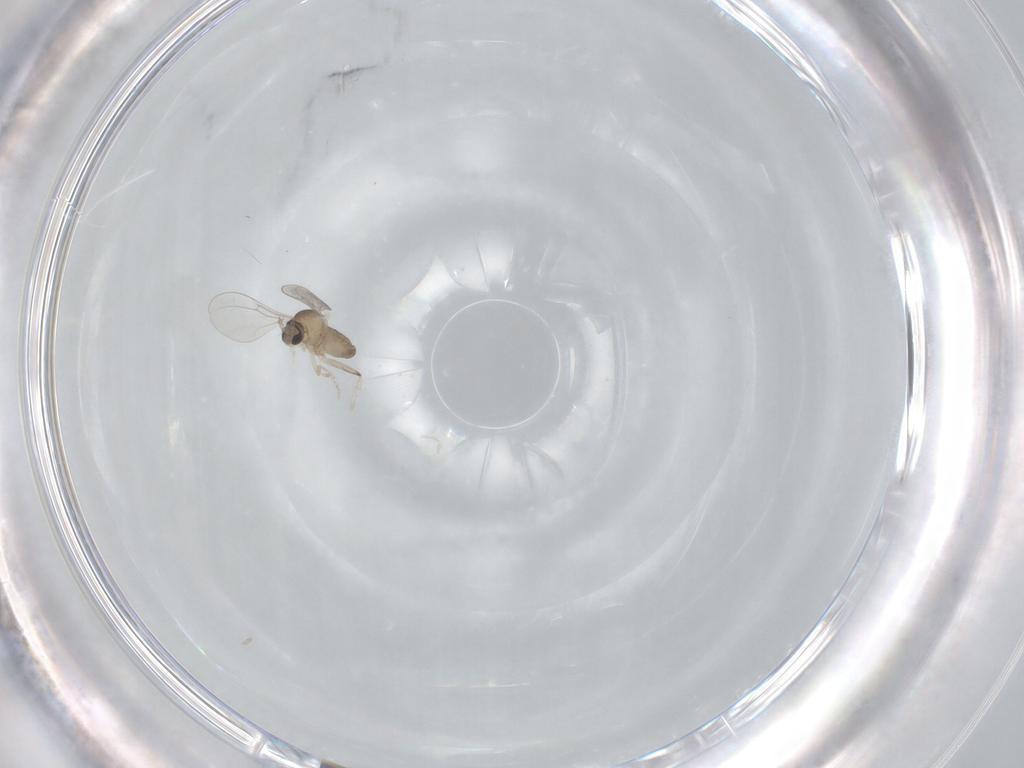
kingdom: Animalia
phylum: Arthropoda
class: Insecta
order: Diptera
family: Cecidomyiidae
